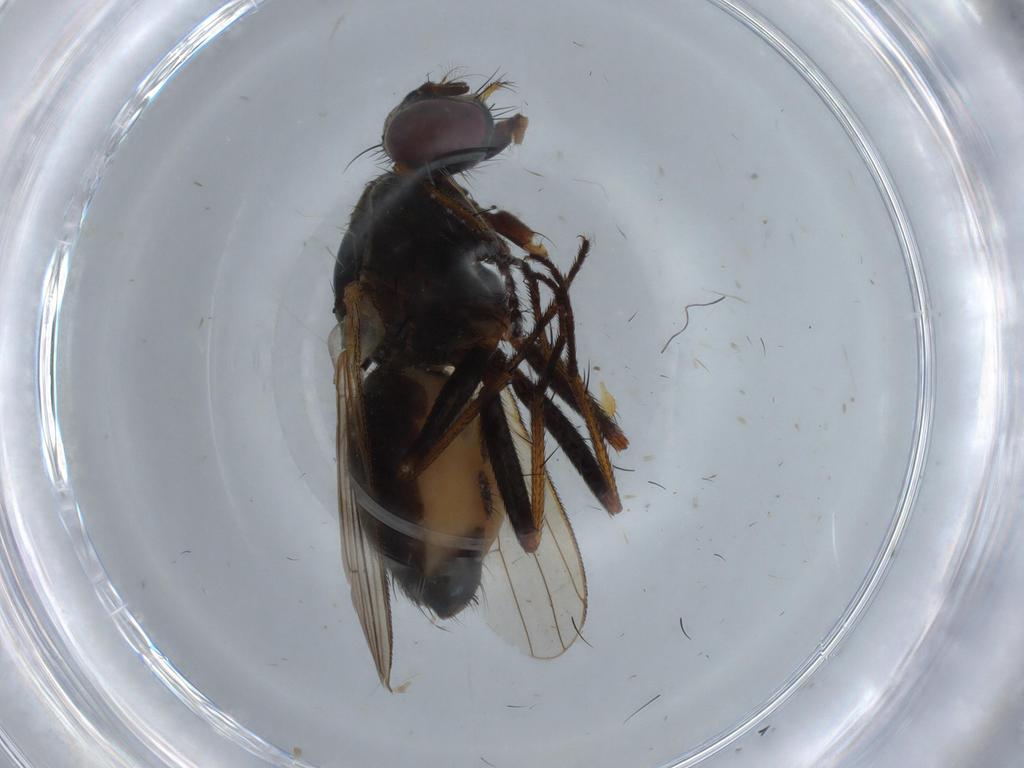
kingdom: Animalia
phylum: Arthropoda
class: Insecta
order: Diptera
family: Muscidae
